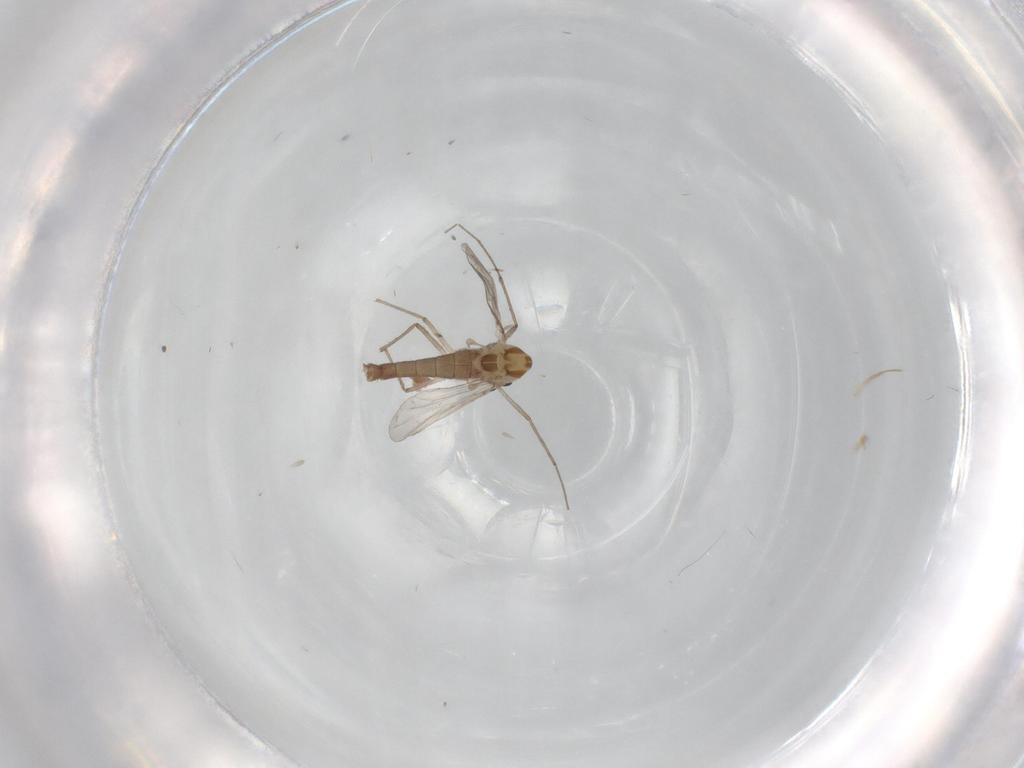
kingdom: Animalia
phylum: Arthropoda
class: Insecta
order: Diptera
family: Chironomidae
